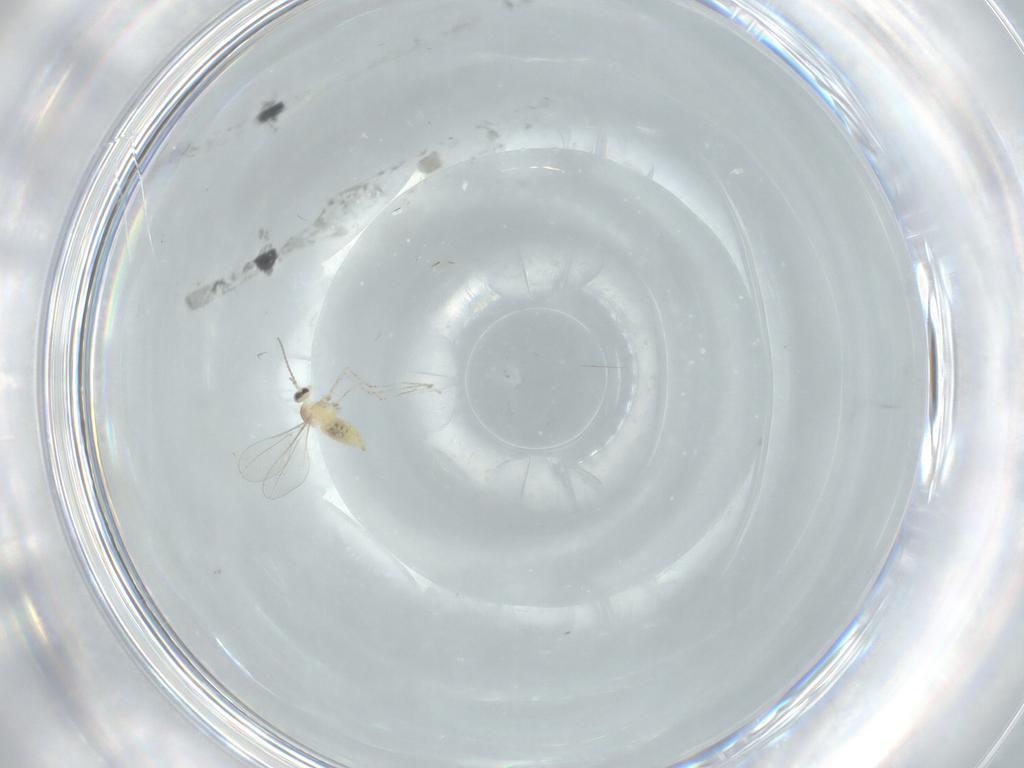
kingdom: Animalia
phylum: Arthropoda
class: Insecta
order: Diptera
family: Cecidomyiidae
